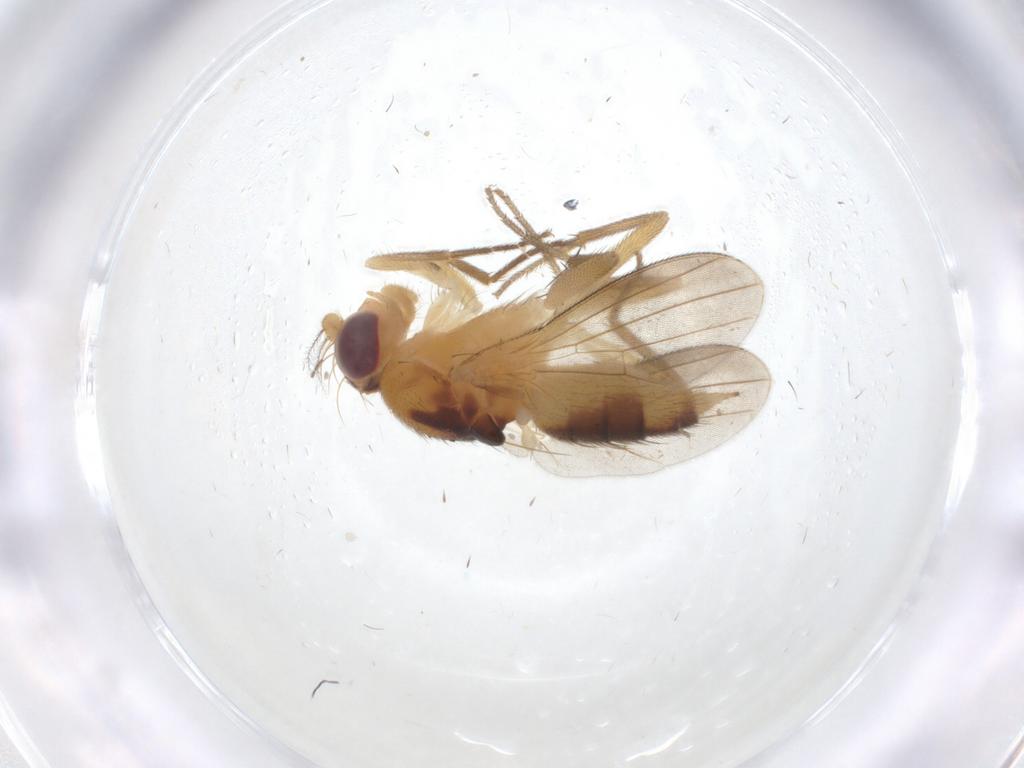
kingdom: Animalia
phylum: Arthropoda
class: Insecta
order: Diptera
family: Clusiidae
